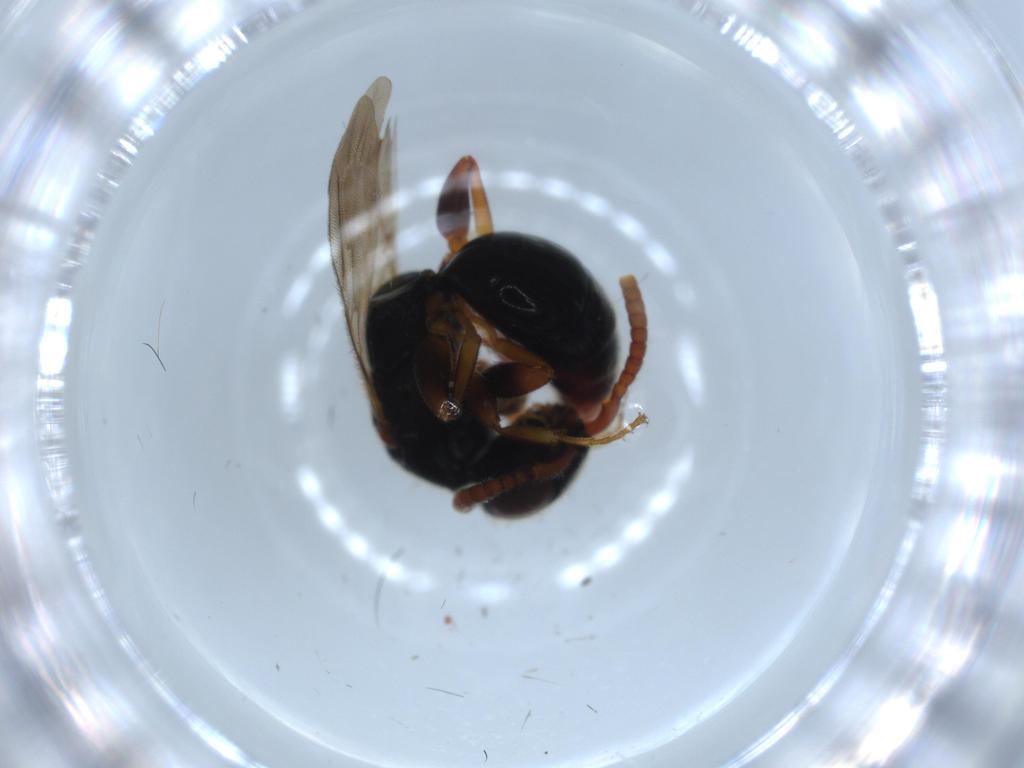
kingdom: Animalia
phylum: Arthropoda
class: Insecta
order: Hymenoptera
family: Bethylidae
